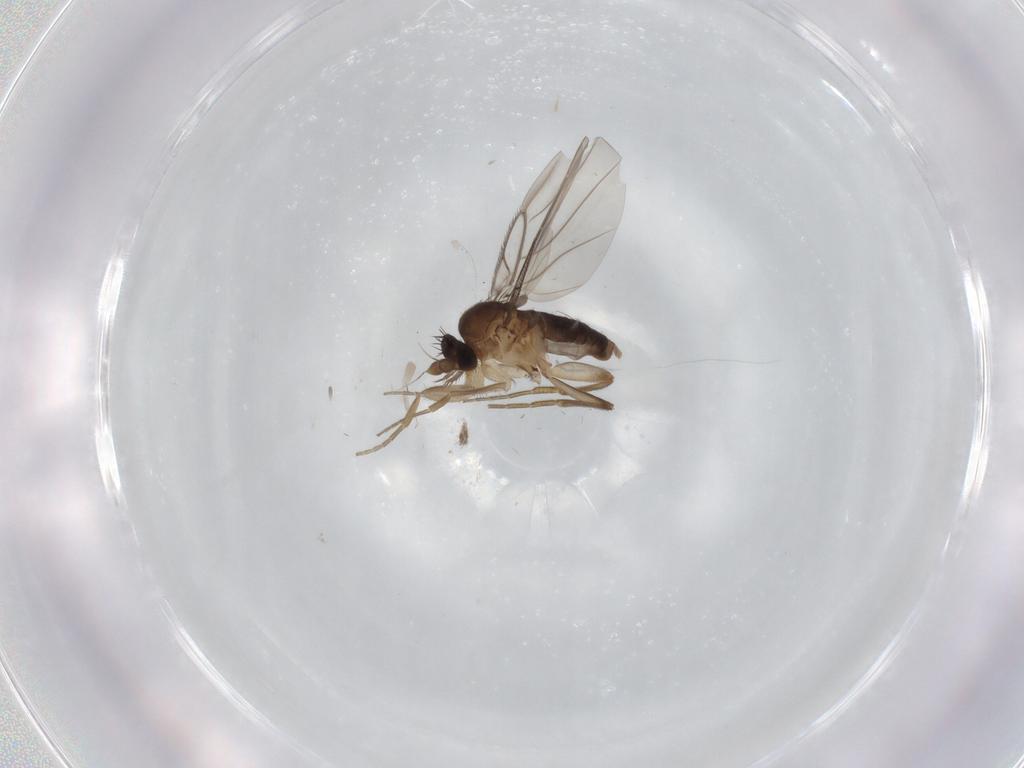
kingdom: Animalia
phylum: Arthropoda
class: Insecta
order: Diptera
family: Phoridae
